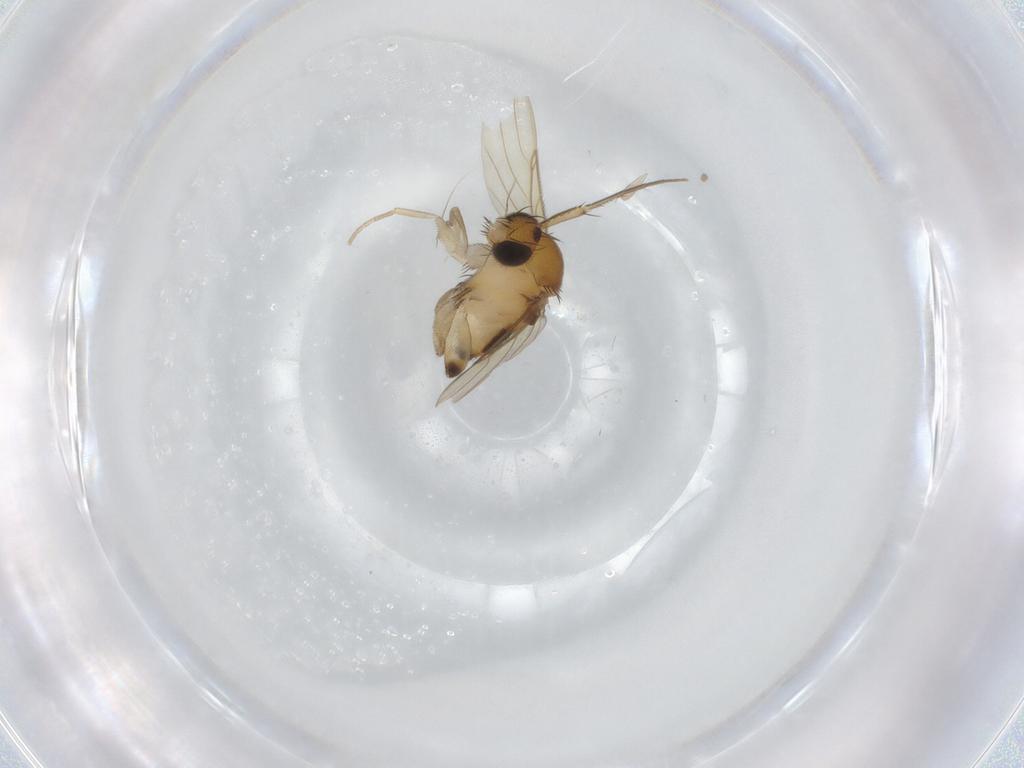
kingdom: Animalia
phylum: Arthropoda
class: Insecta
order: Diptera
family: Phoridae
